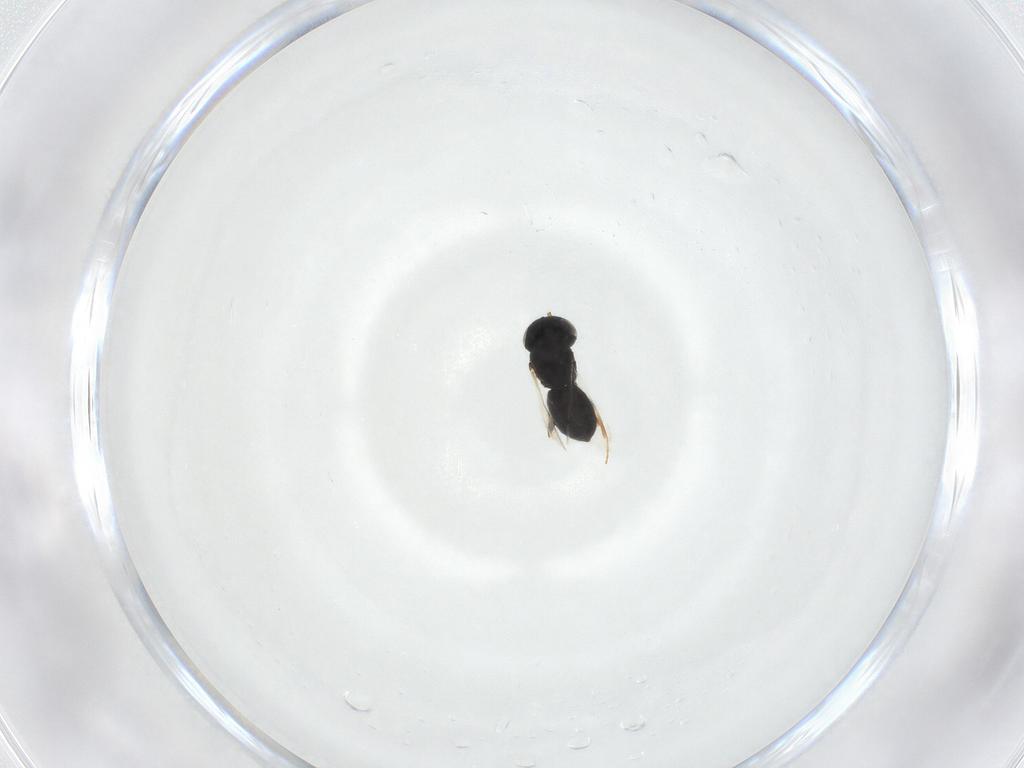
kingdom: Animalia
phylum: Arthropoda
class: Insecta
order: Hymenoptera
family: Scelionidae
